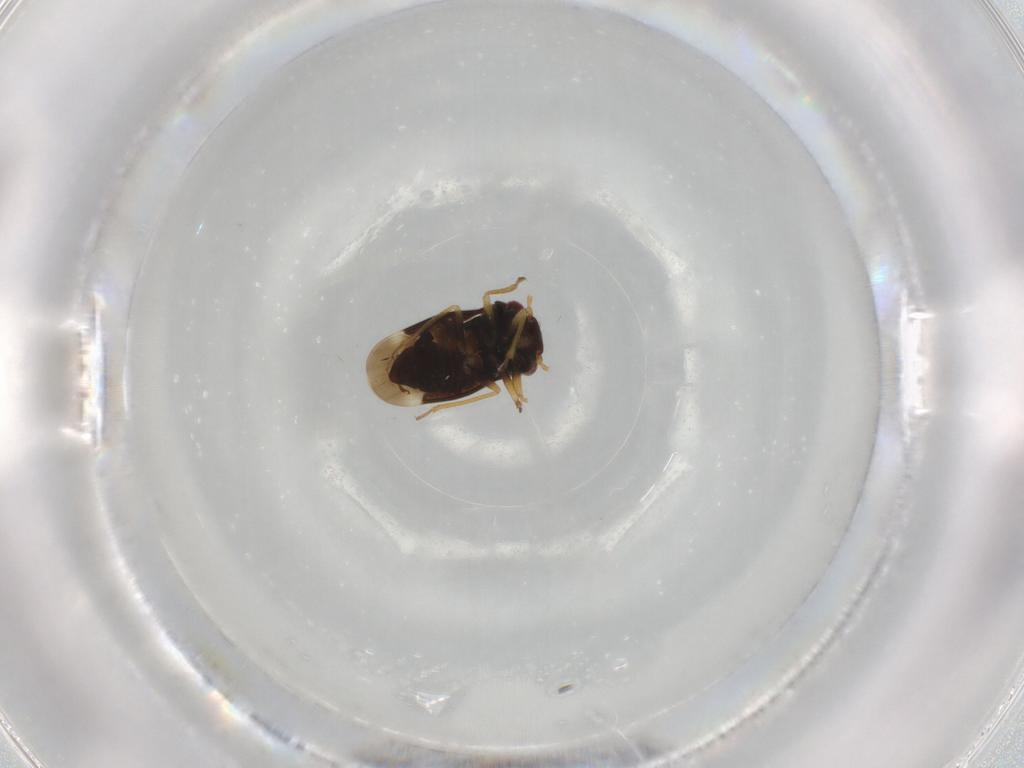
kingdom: Animalia
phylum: Arthropoda
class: Insecta
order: Hemiptera
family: Schizopteridae
